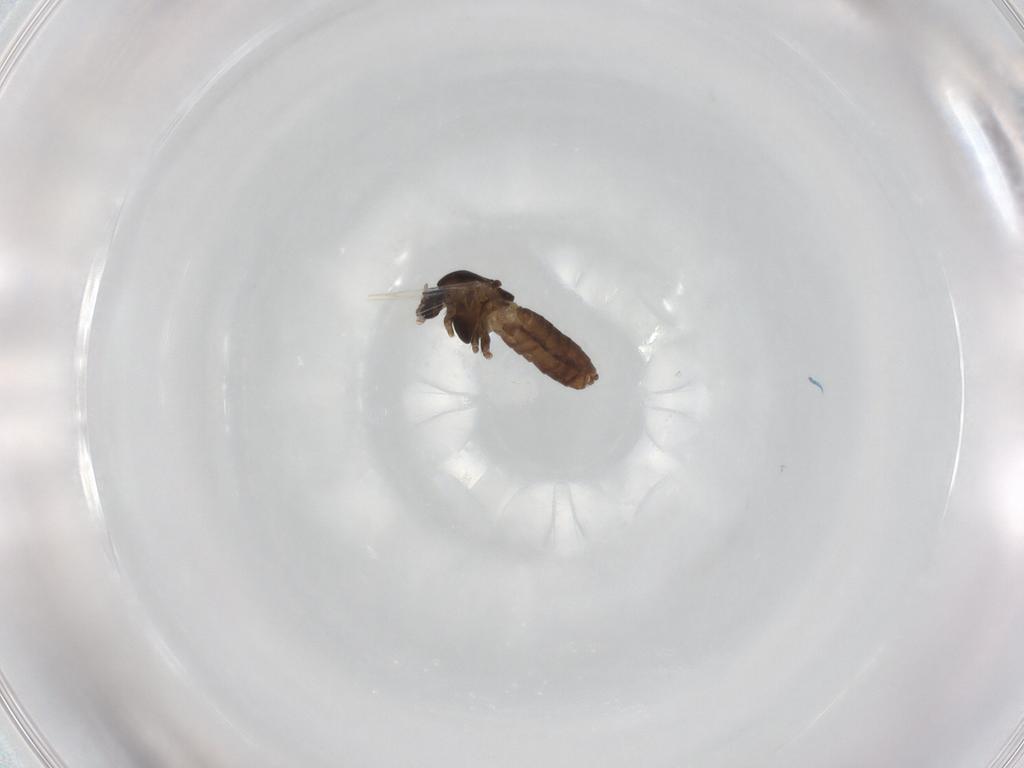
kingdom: Animalia
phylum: Arthropoda
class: Insecta
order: Diptera
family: Chironomidae
